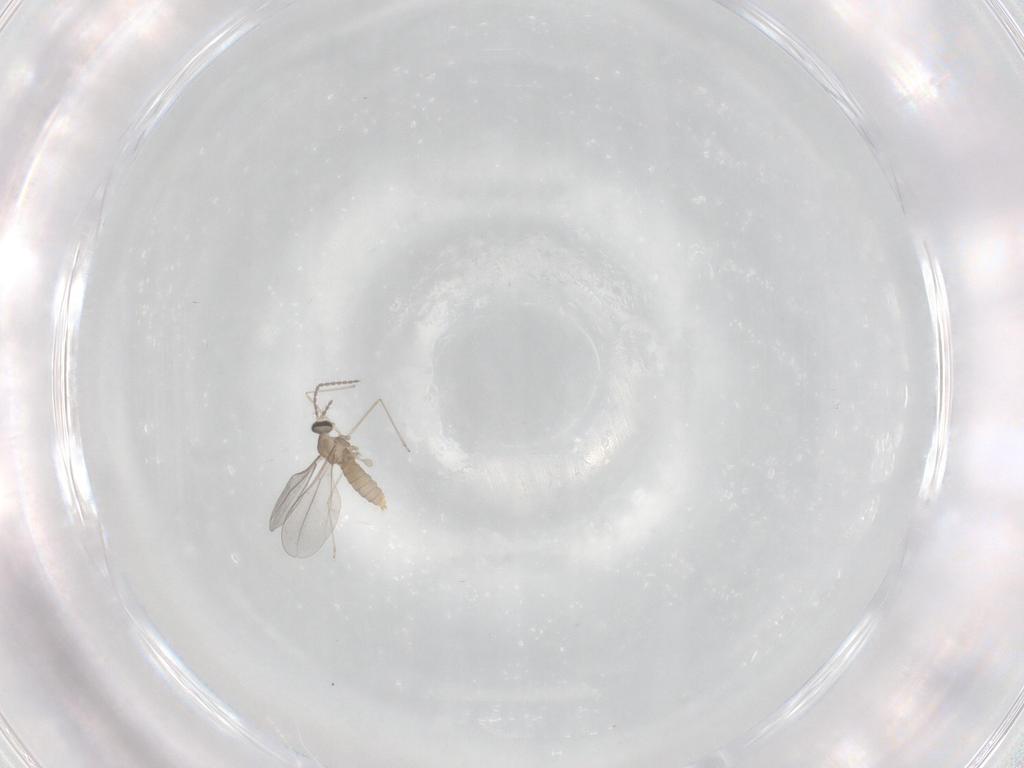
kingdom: Animalia
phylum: Arthropoda
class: Insecta
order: Diptera
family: Cecidomyiidae
